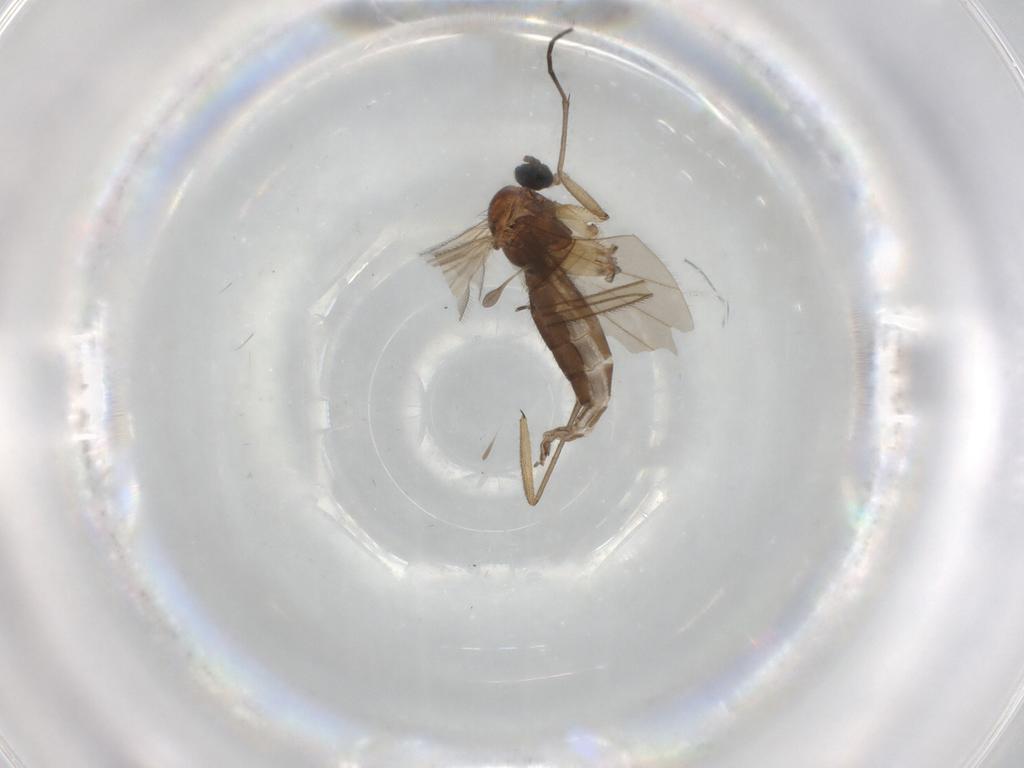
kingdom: Animalia
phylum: Arthropoda
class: Insecta
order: Diptera
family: Sciaridae
